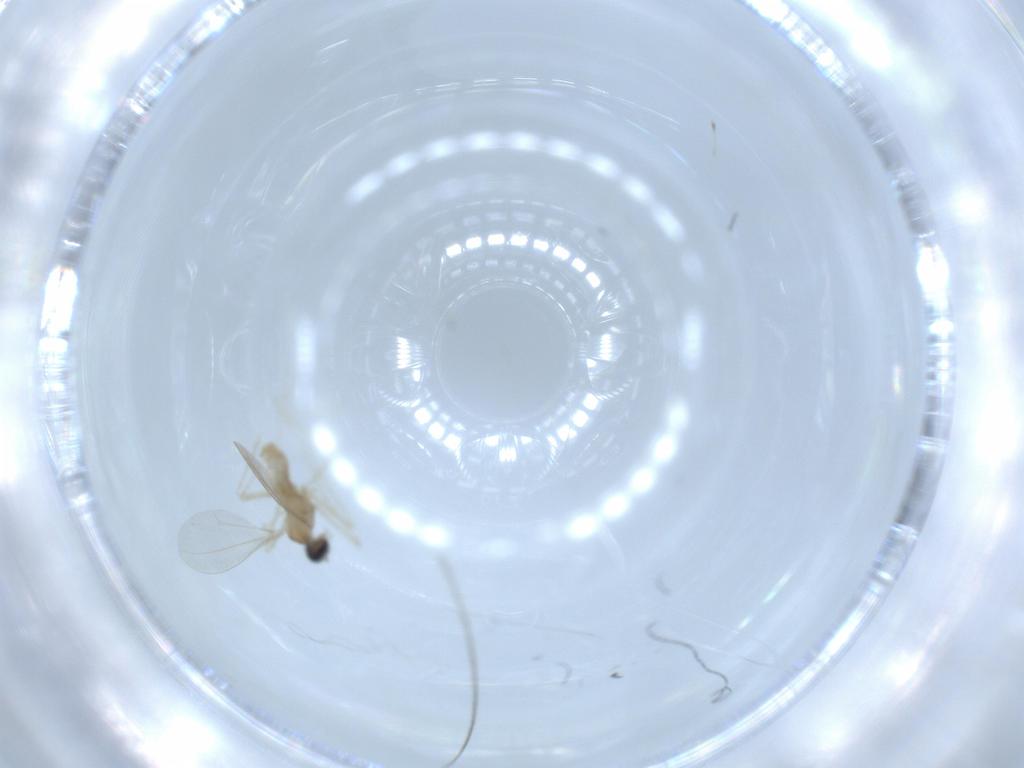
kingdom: Animalia
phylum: Arthropoda
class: Insecta
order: Diptera
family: Chironomidae
